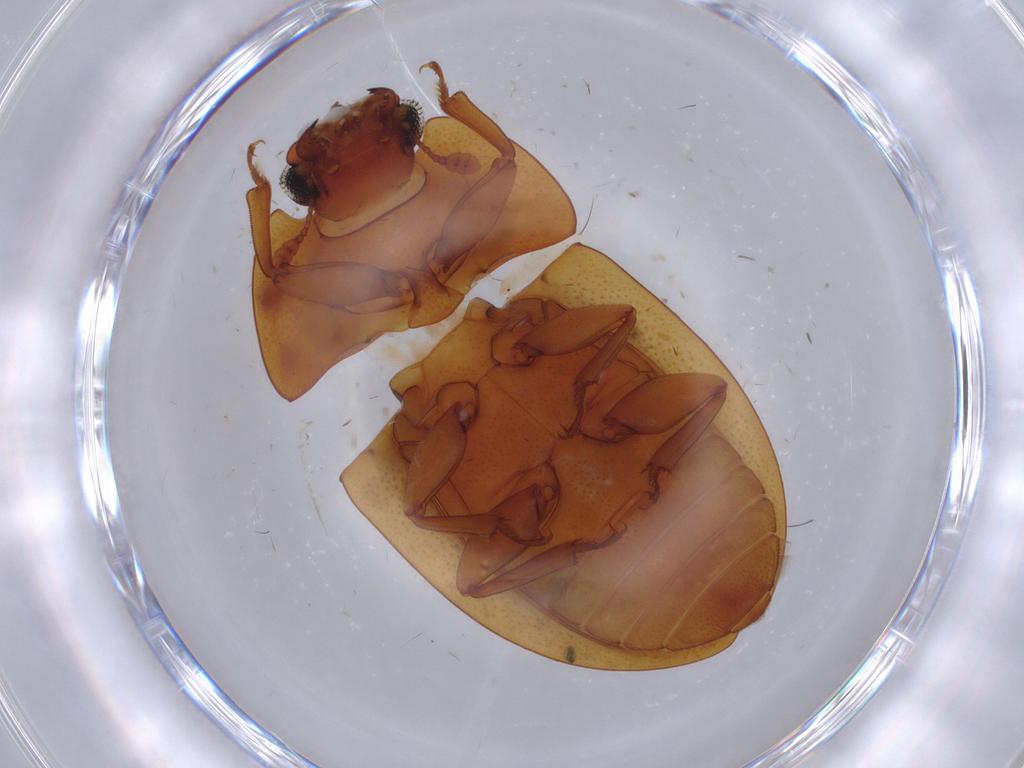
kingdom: Animalia
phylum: Arthropoda
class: Insecta
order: Coleoptera
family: Nitidulidae
